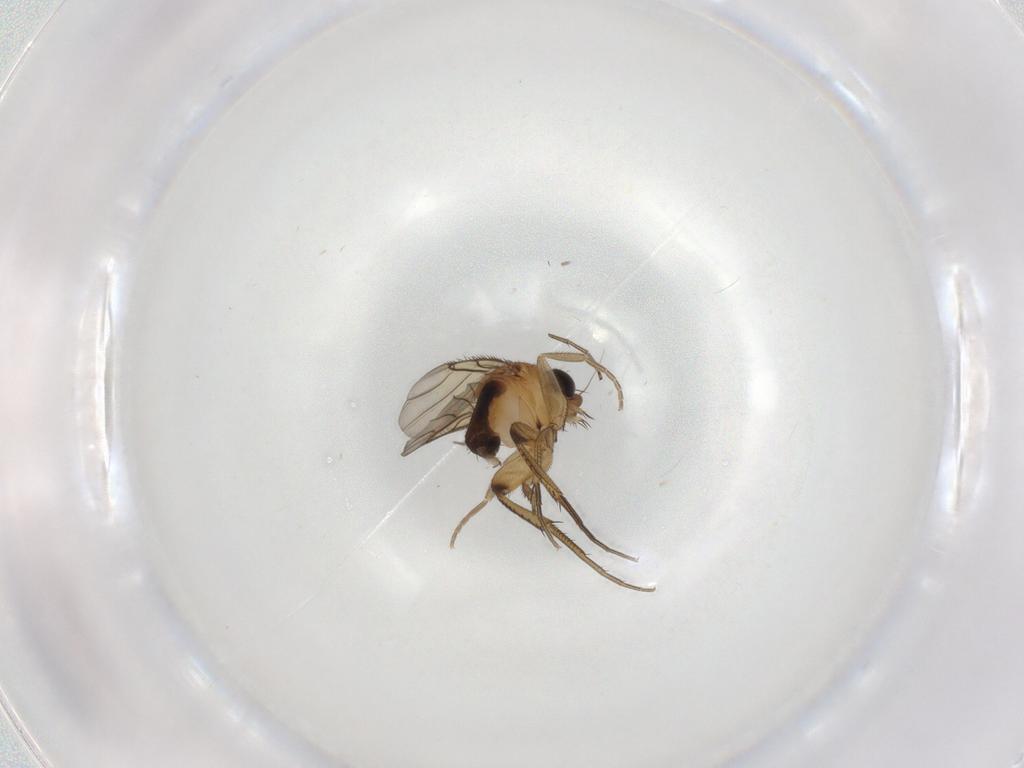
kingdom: Animalia
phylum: Arthropoda
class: Insecta
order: Diptera
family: Phoridae
